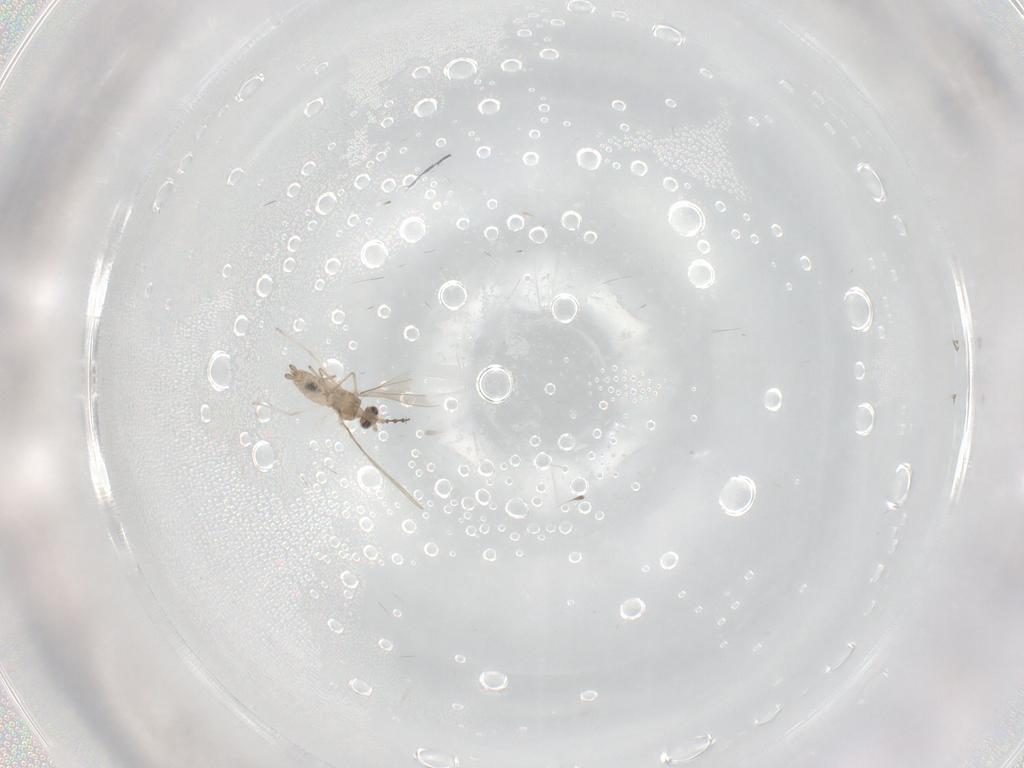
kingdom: Animalia
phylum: Arthropoda
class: Insecta
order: Diptera
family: Cecidomyiidae
